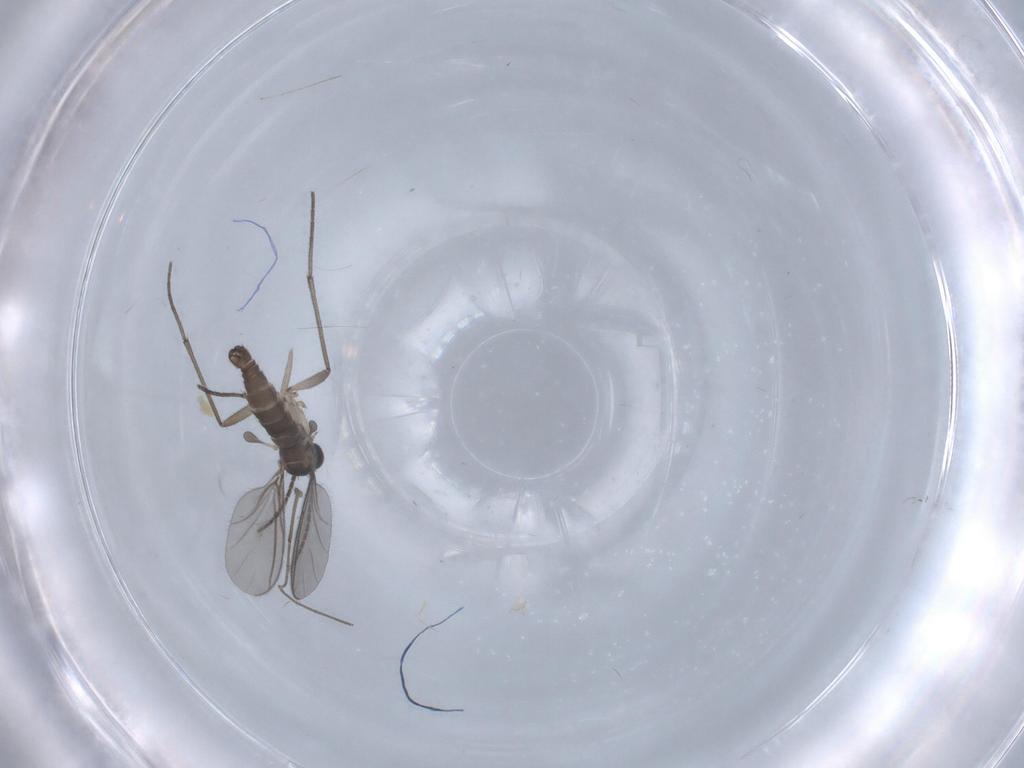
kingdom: Animalia
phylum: Arthropoda
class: Insecta
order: Diptera
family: Sciaridae
